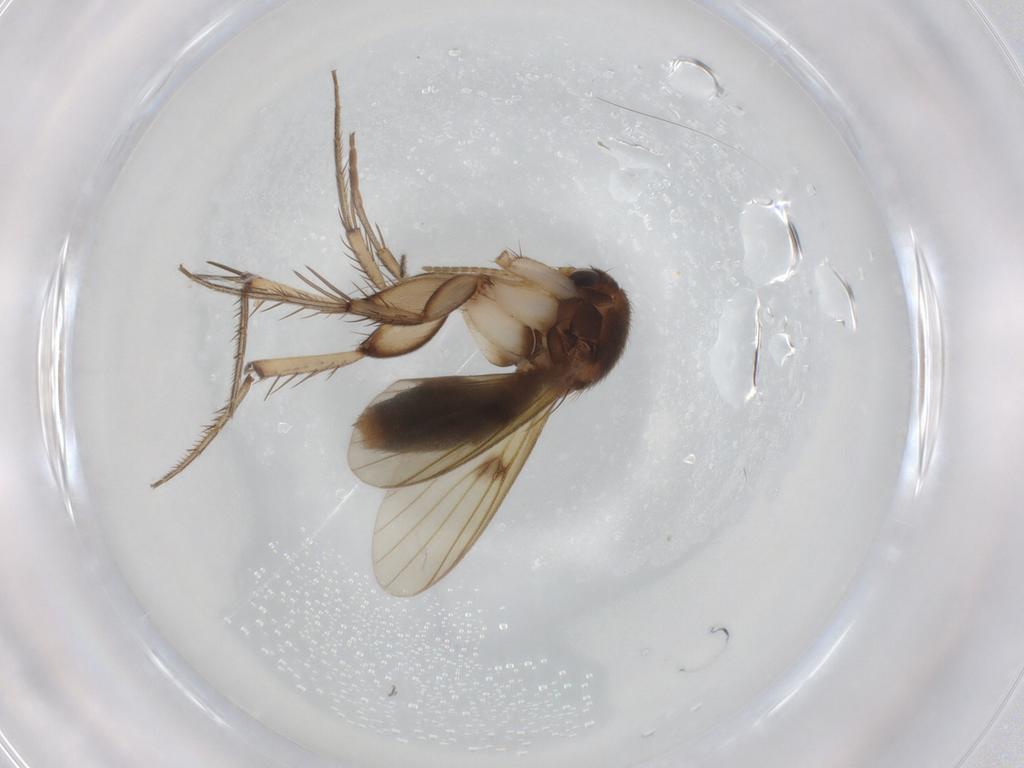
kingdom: Animalia
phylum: Arthropoda
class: Insecta
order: Diptera
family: Mycetophilidae
